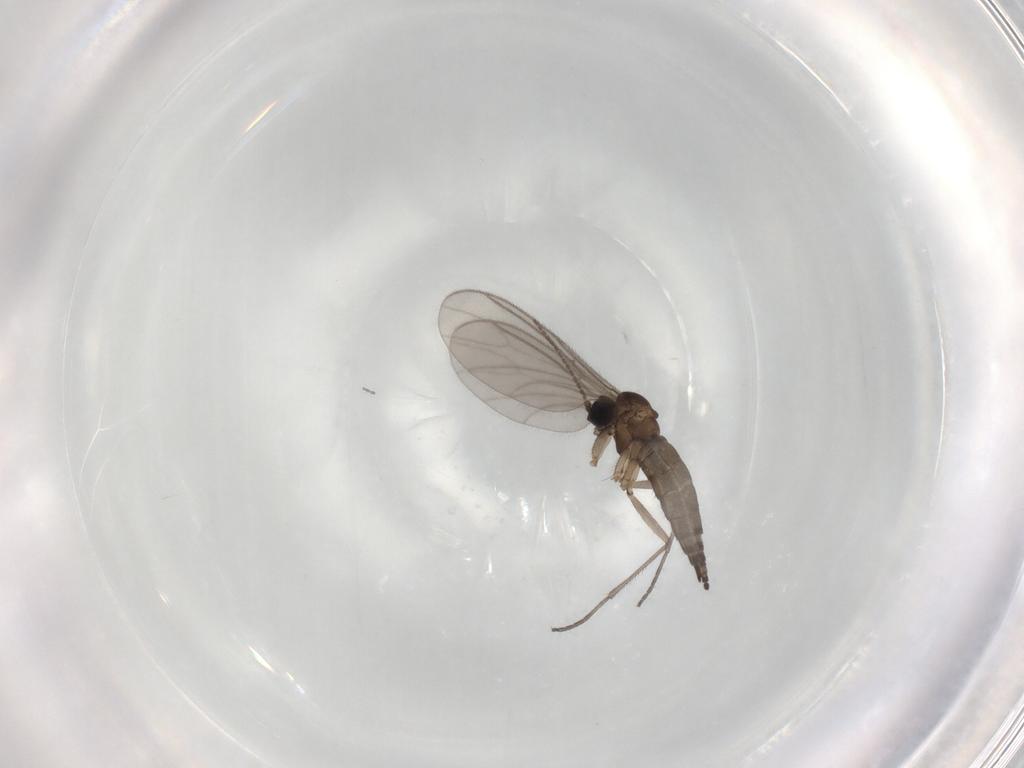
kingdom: Animalia
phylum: Arthropoda
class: Insecta
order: Diptera
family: Sciaridae
